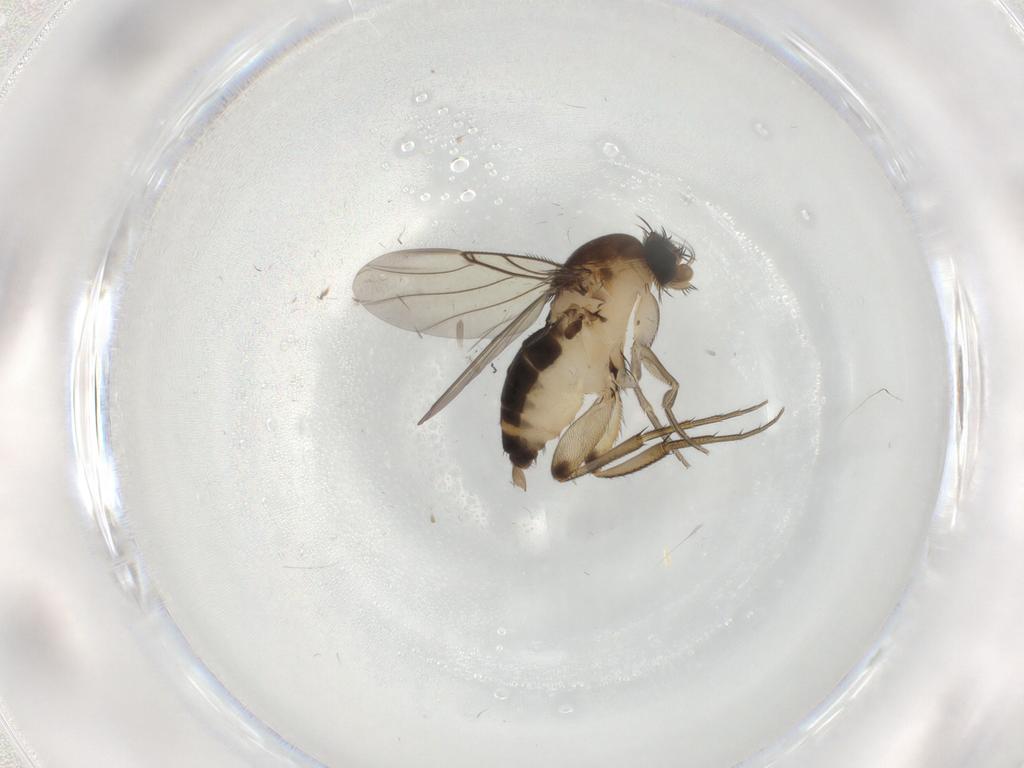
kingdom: Animalia
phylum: Arthropoda
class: Insecta
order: Diptera
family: Phoridae
